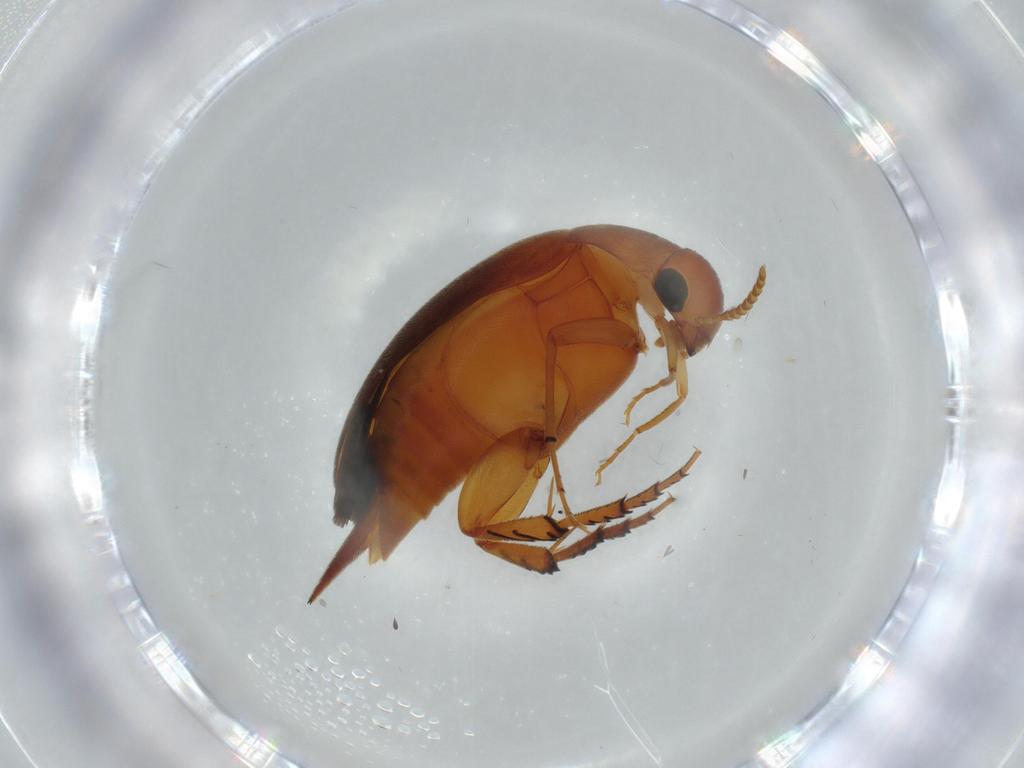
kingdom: Animalia
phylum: Arthropoda
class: Insecta
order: Coleoptera
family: Mordellidae
